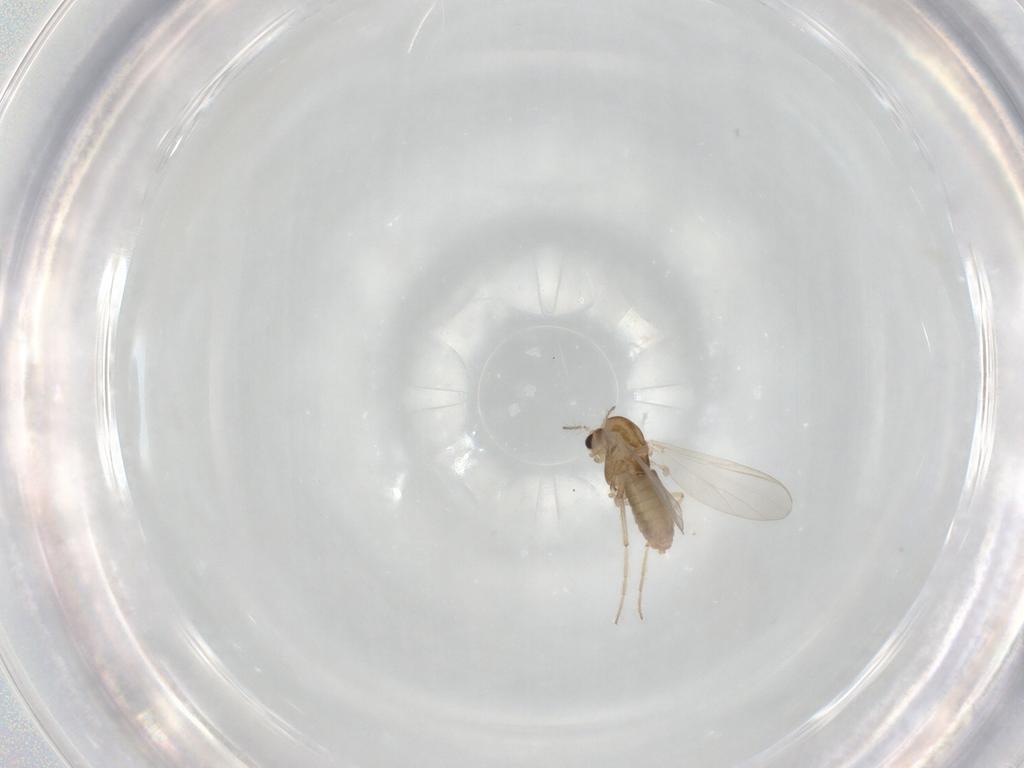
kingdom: Animalia
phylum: Arthropoda
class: Insecta
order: Diptera
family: Chironomidae
